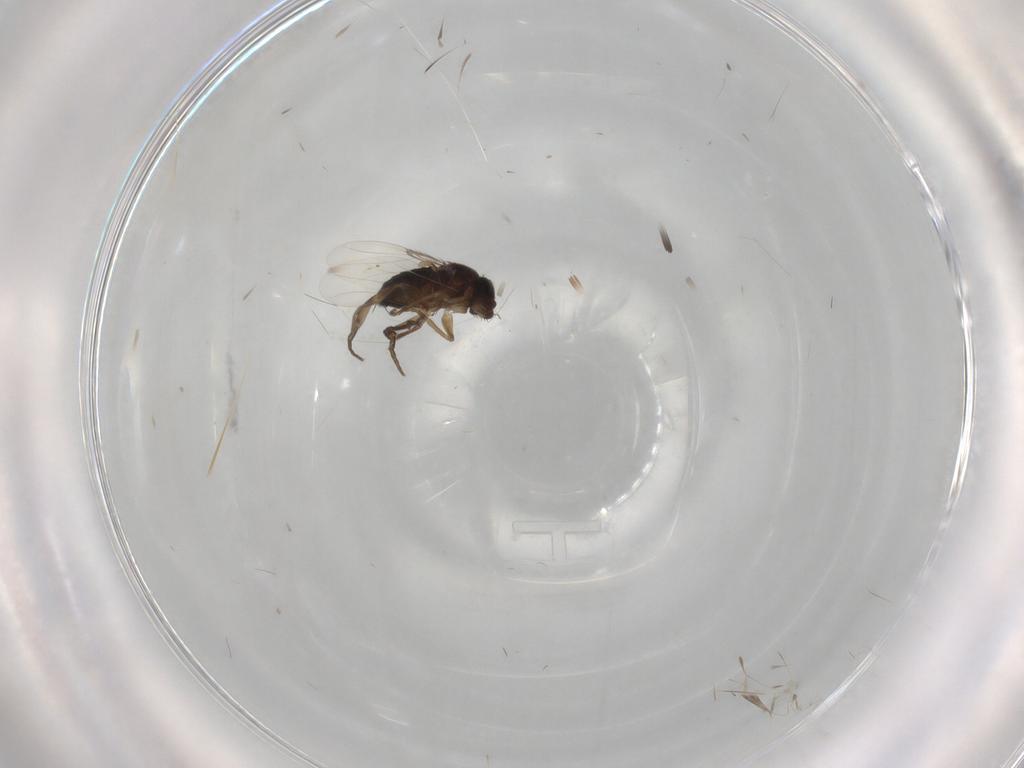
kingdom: Animalia
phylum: Arthropoda
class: Insecta
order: Diptera
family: Phoridae
